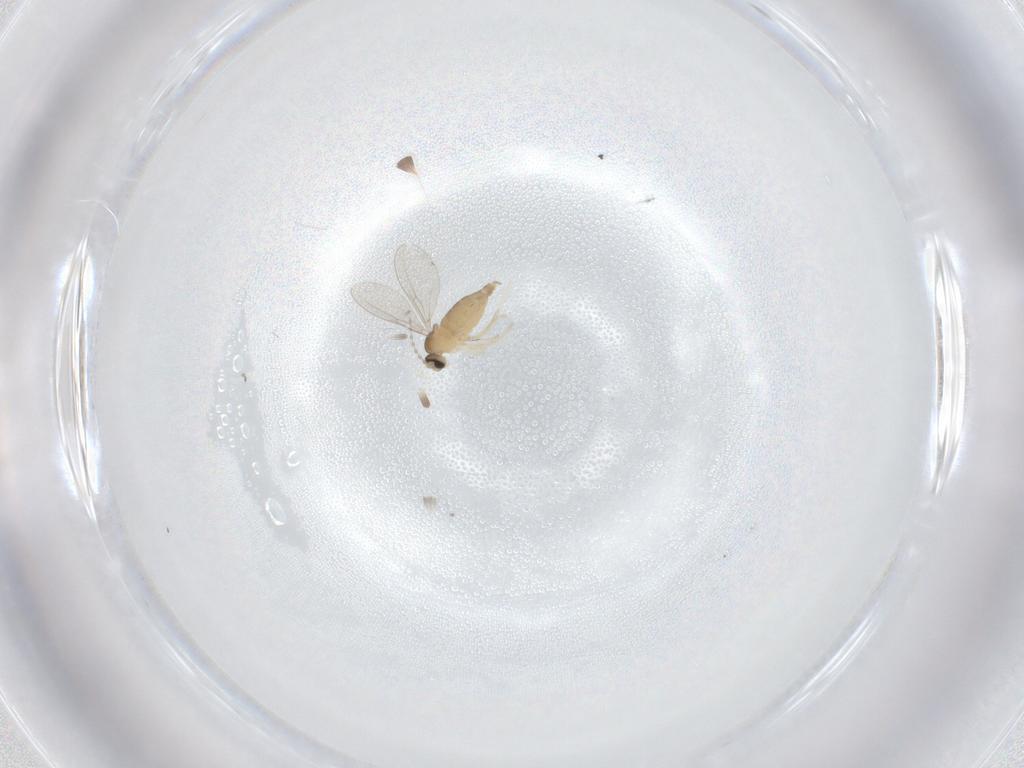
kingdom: Animalia
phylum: Arthropoda
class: Insecta
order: Diptera
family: Cecidomyiidae
